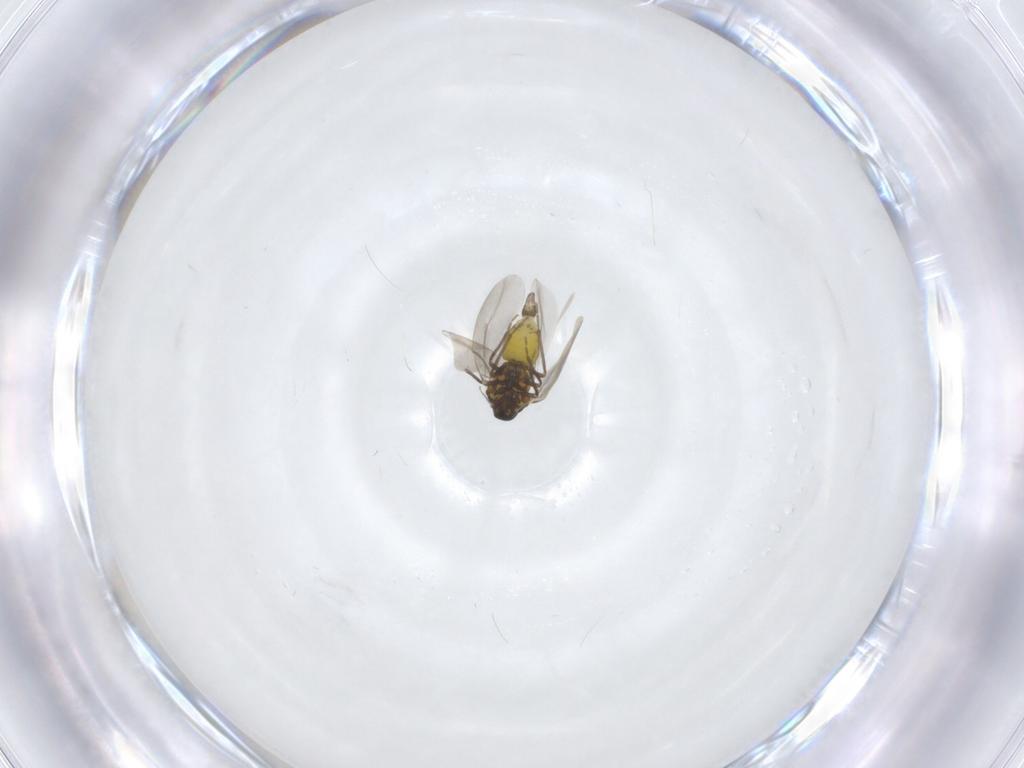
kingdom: Animalia
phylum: Arthropoda
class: Insecta
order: Hemiptera
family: Aleyrodidae
